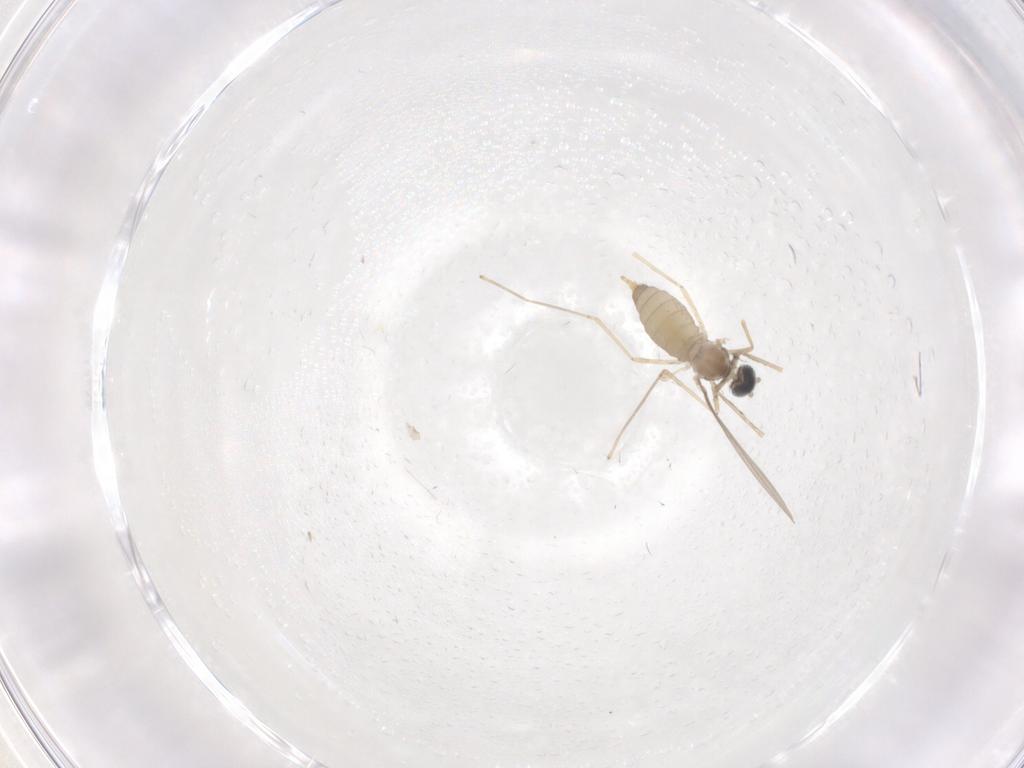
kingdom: Animalia
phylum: Arthropoda
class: Insecta
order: Diptera
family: Cecidomyiidae
